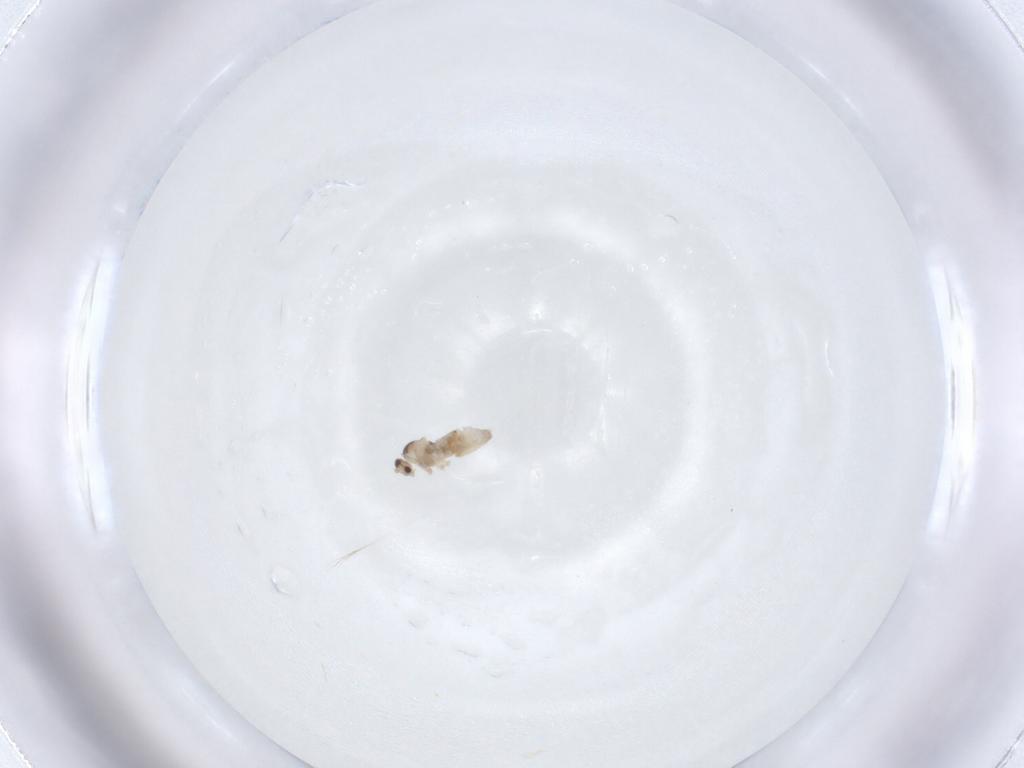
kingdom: Animalia
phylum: Arthropoda
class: Insecta
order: Diptera
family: Cecidomyiidae
